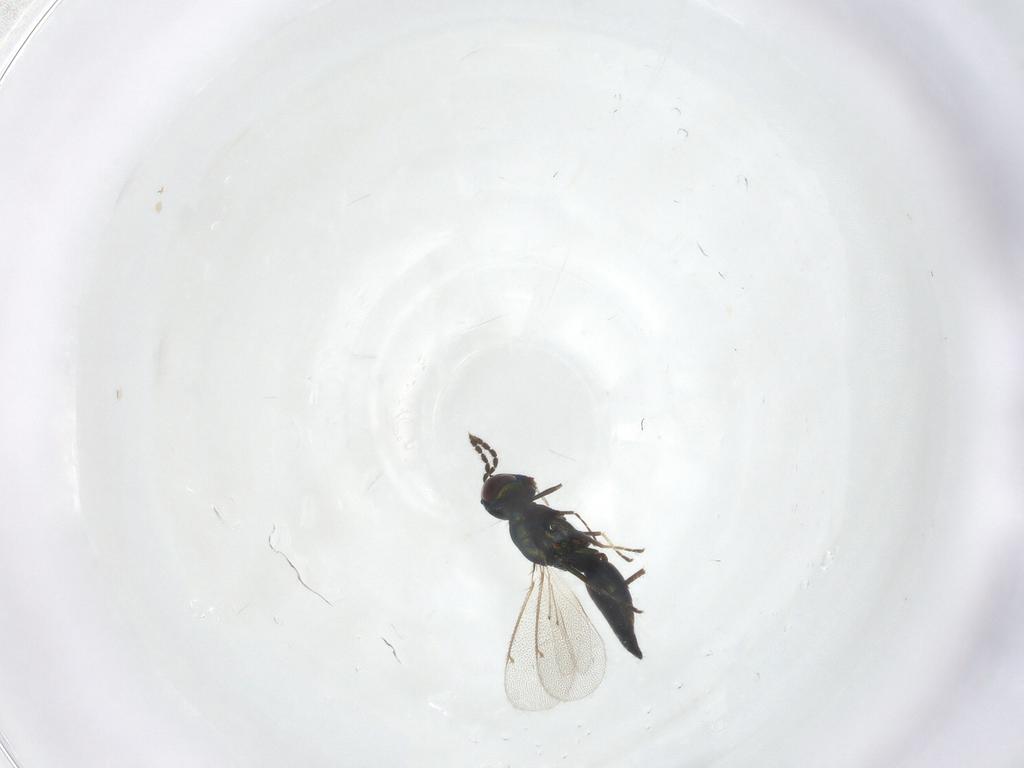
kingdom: Animalia
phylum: Arthropoda
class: Insecta
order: Hymenoptera
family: Eulophidae
